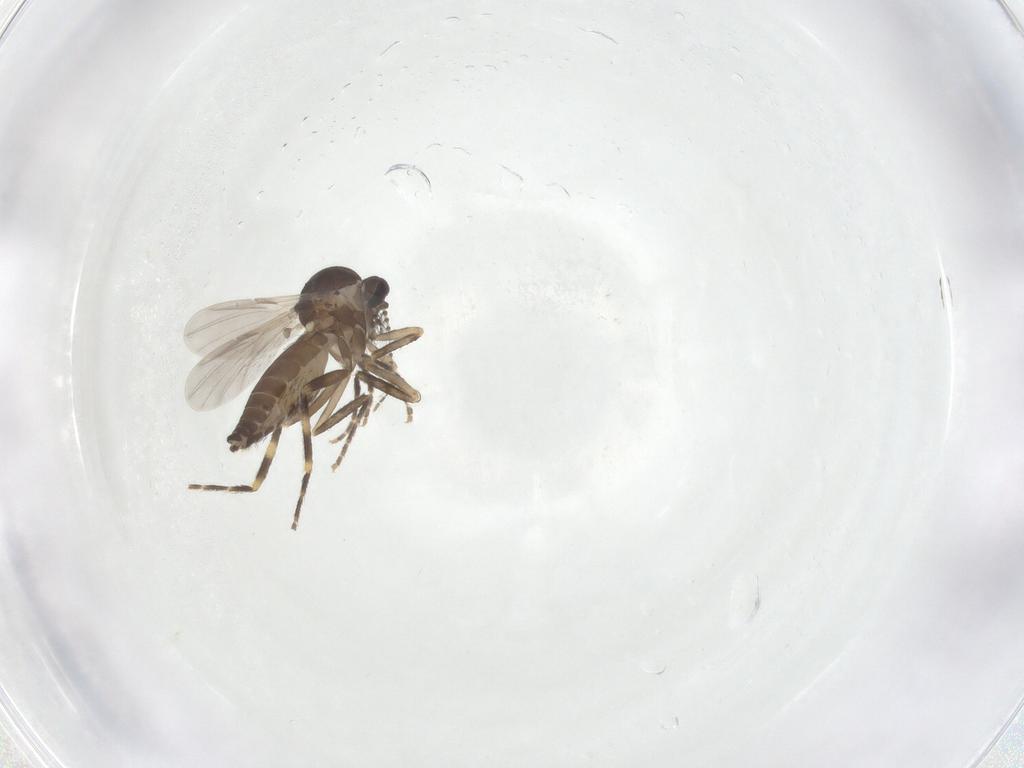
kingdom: Animalia
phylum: Arthropoda
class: Insecta
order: Diptera
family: Ceratopogonidae
